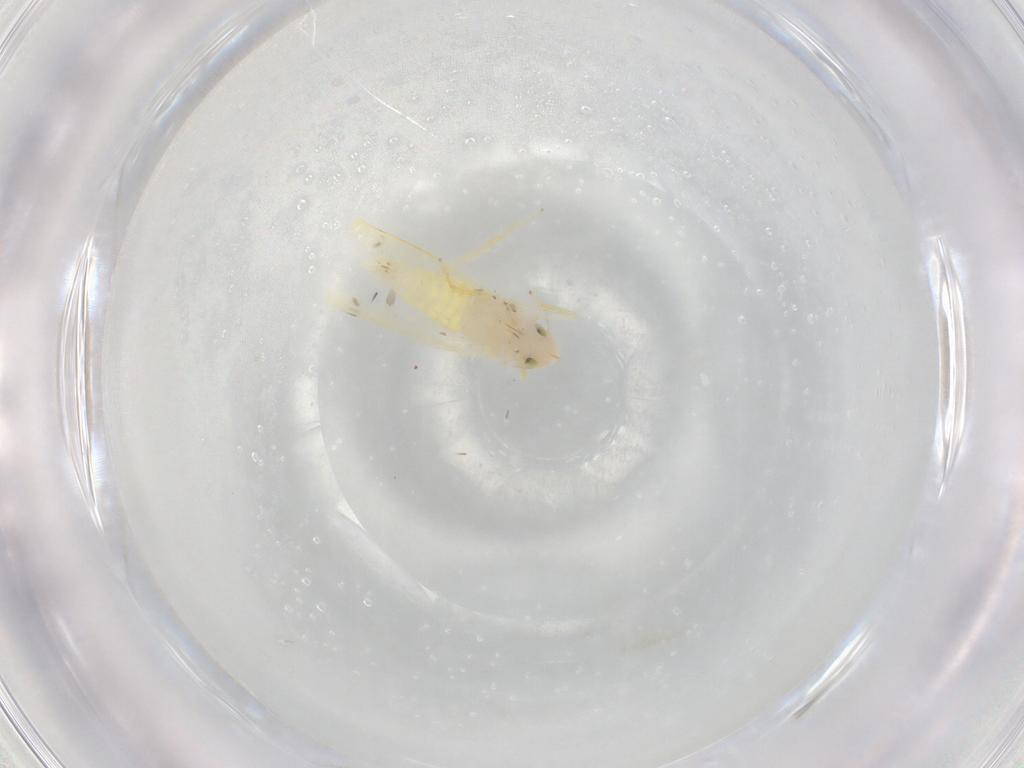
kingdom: Animalia
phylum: Arthropoda
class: Insecta
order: Hemiptera
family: Cicadellidae
